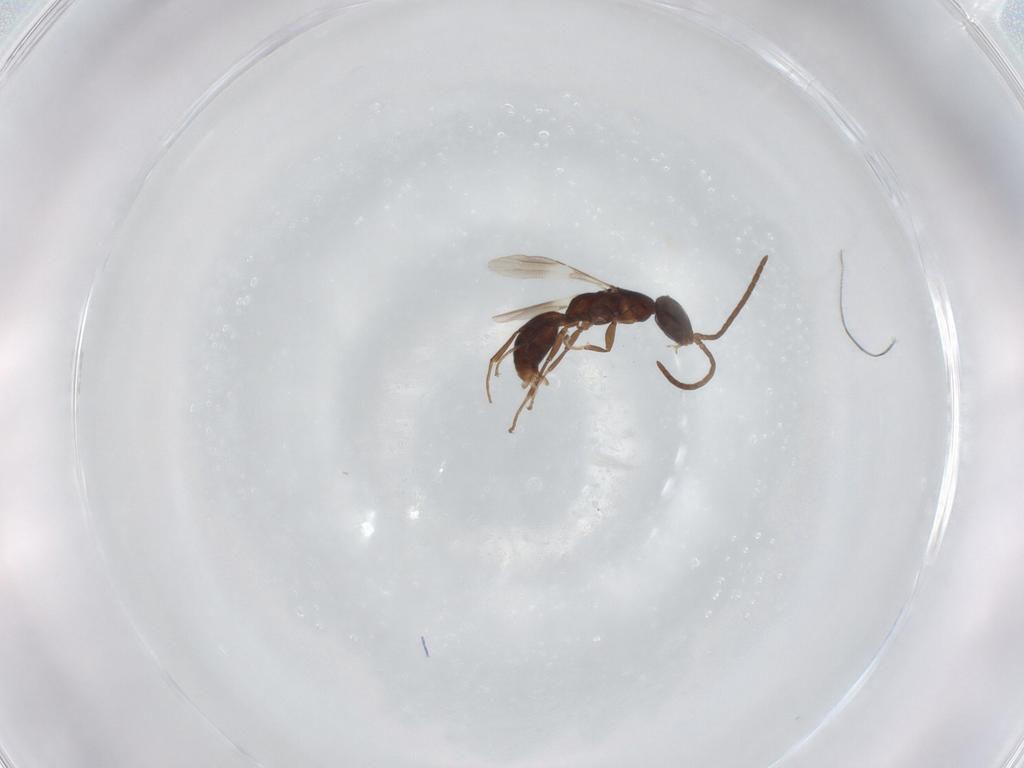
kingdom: Animalia
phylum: Arthropoda
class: Insecta
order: Hymenoptera
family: Bethylidae
